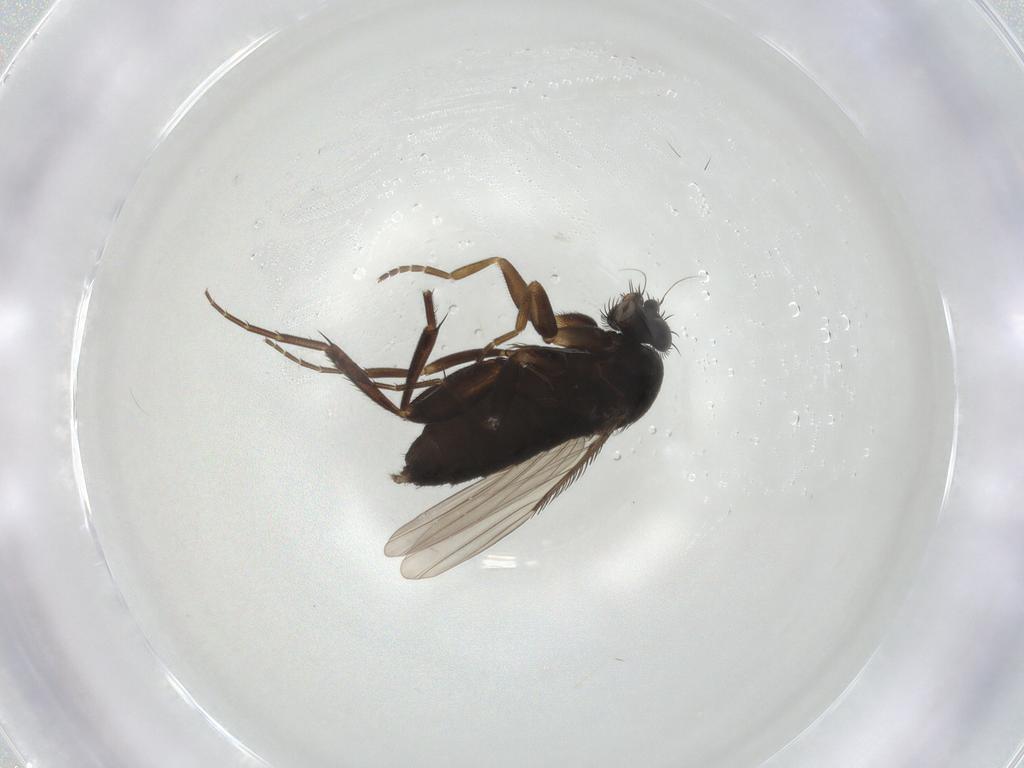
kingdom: Animalia
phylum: Arthropoda
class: Insecta
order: Diptera
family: Phoridae
